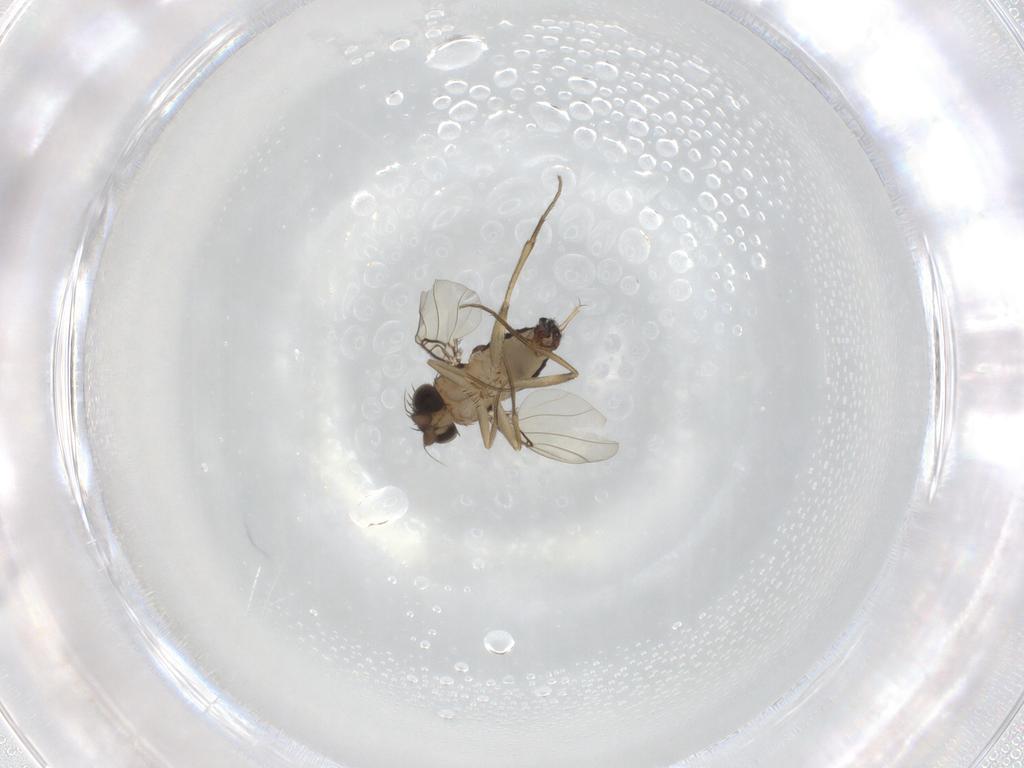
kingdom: Animalia
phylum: Arthropoda
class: Insecta
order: Diptera
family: Phoridae
